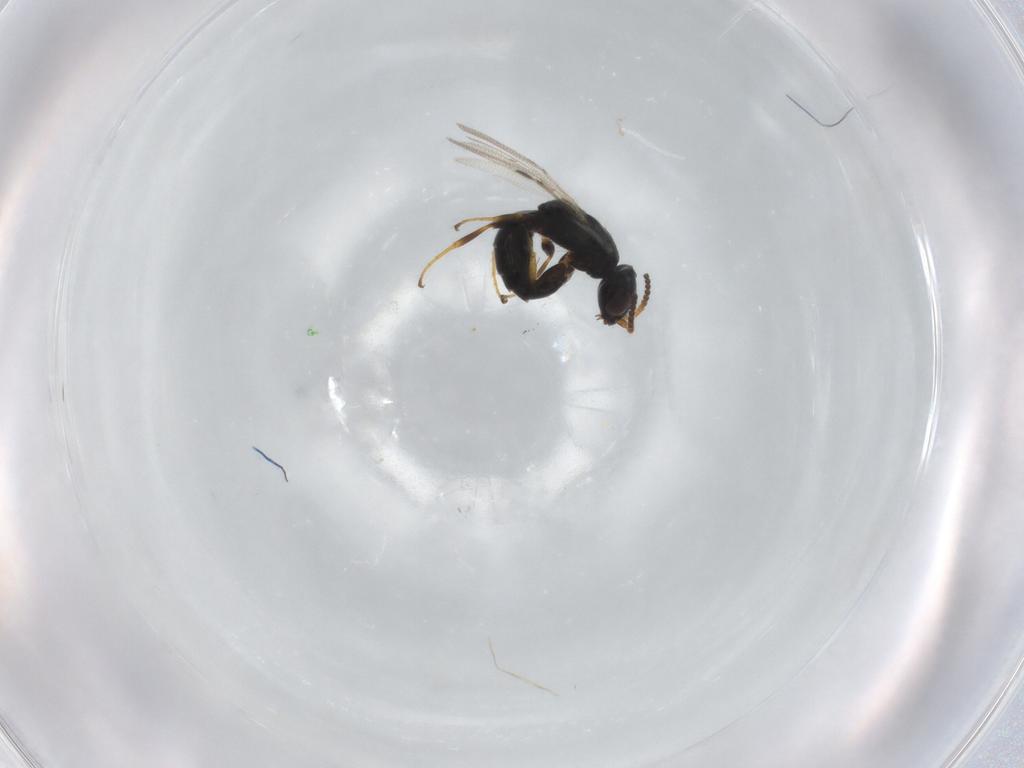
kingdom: Animalia
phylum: Arthropoda
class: Insecta
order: Hymenoptera
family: Bethylidae
